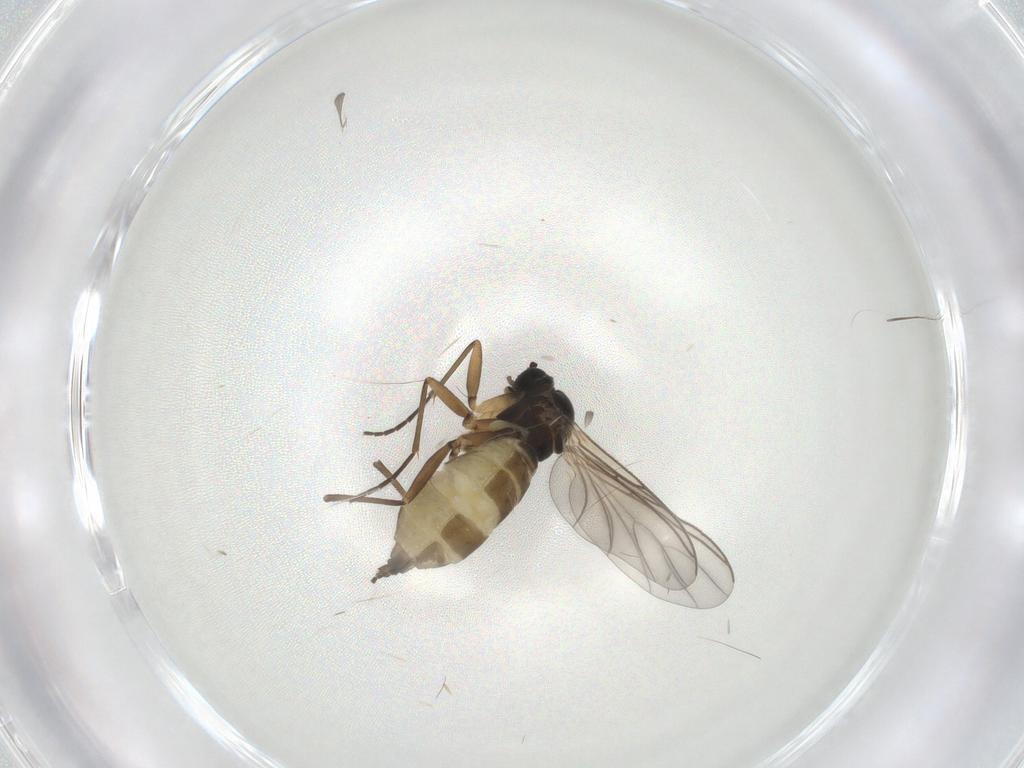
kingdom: Animalia
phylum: Arthropoda
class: Insecta
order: Diptera
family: Sciaridae
